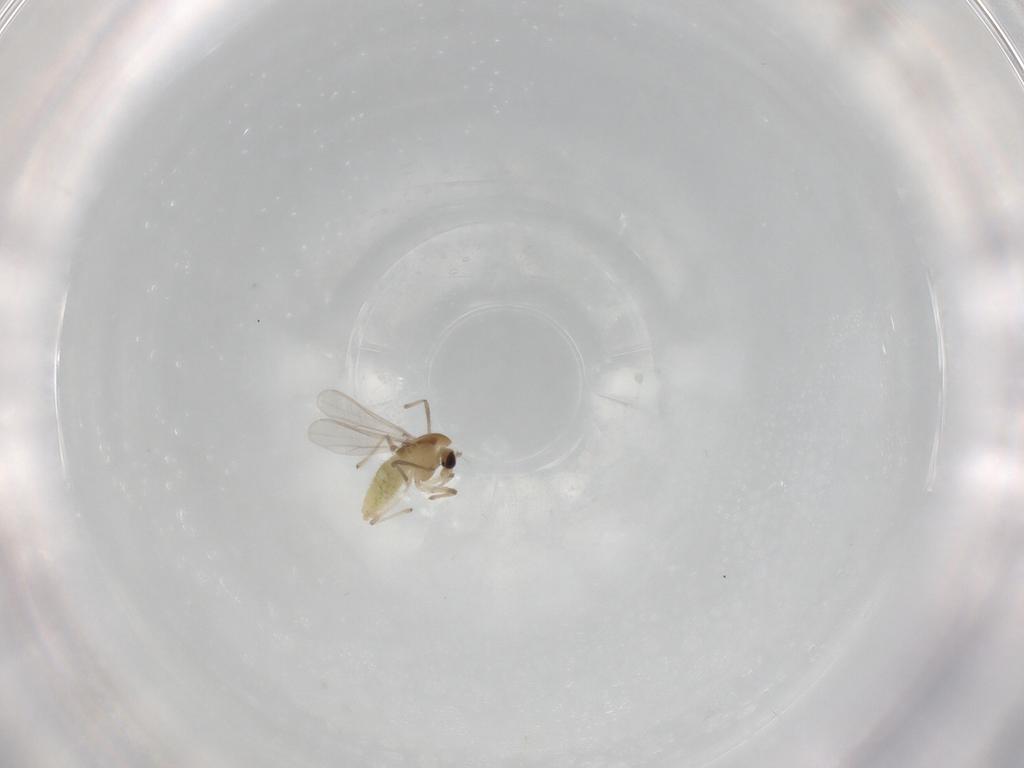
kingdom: Animalia
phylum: Arthropoda
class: Insecta
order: Diptera
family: Chironomidae
